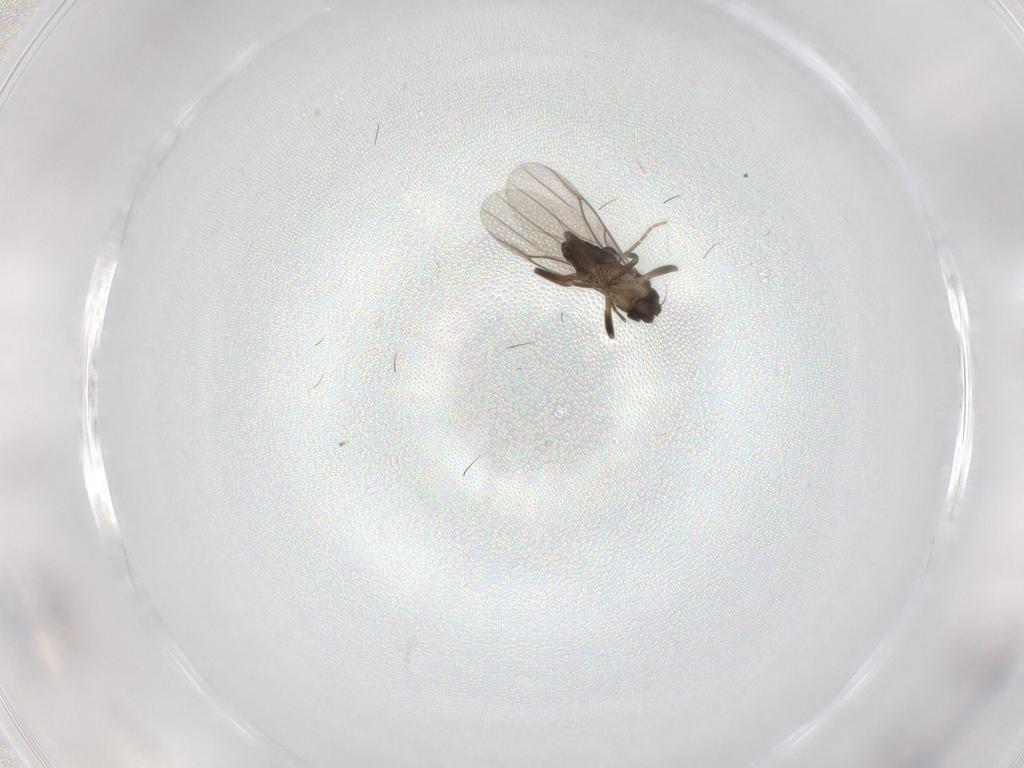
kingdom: Animalia
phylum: Arthropoda
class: Insecta
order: Diptera
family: Phoridae
